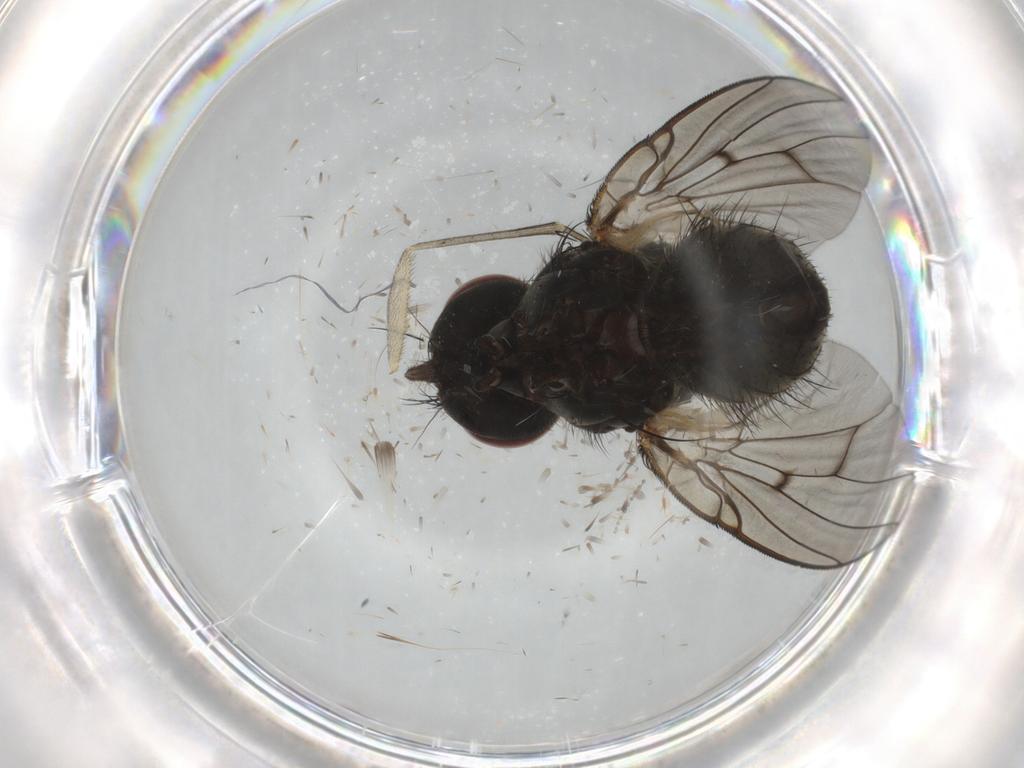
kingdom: Animalia
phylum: Arthropoda
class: Insecta
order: Diptera
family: Muscidae
